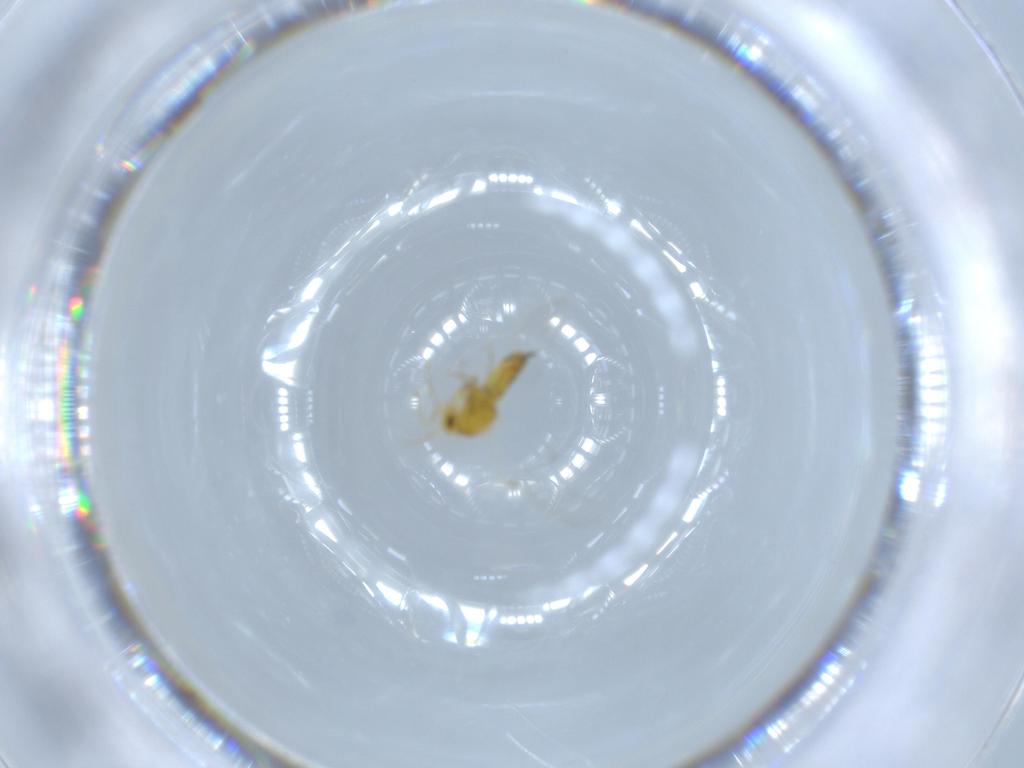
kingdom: Animalia
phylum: Arthropoda
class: Insecta
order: Hemiptera
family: Aleyrodidae
